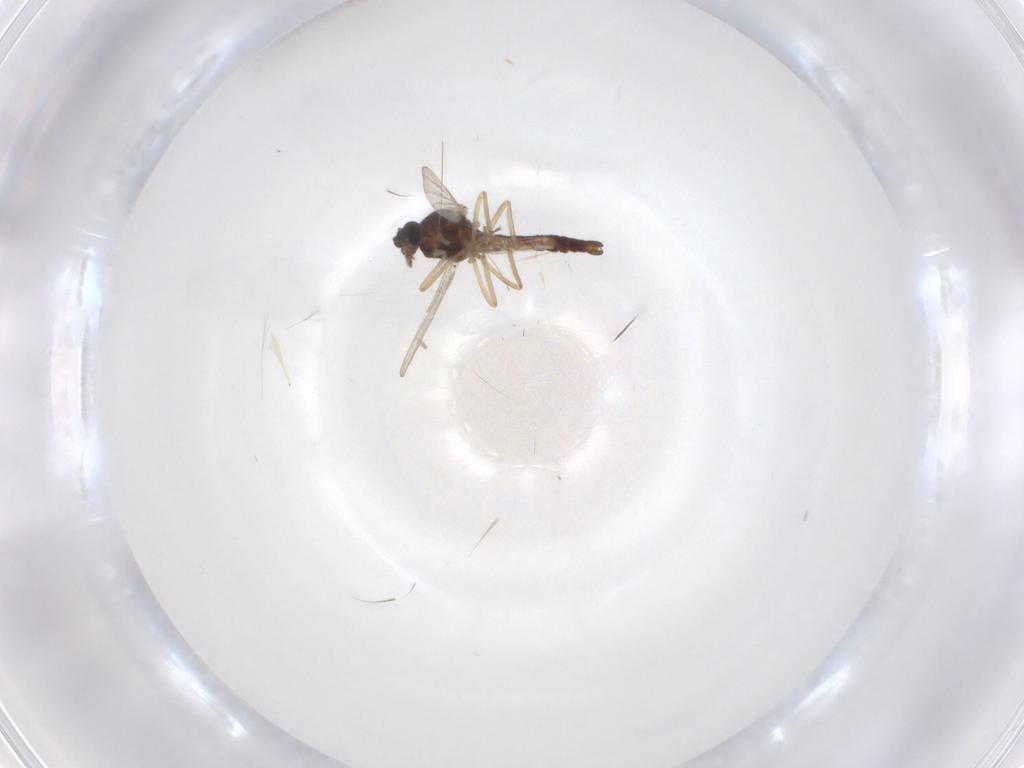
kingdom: Animalia
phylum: Arthropoda
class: Insecta
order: Diptera
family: Ceratopogonidae
